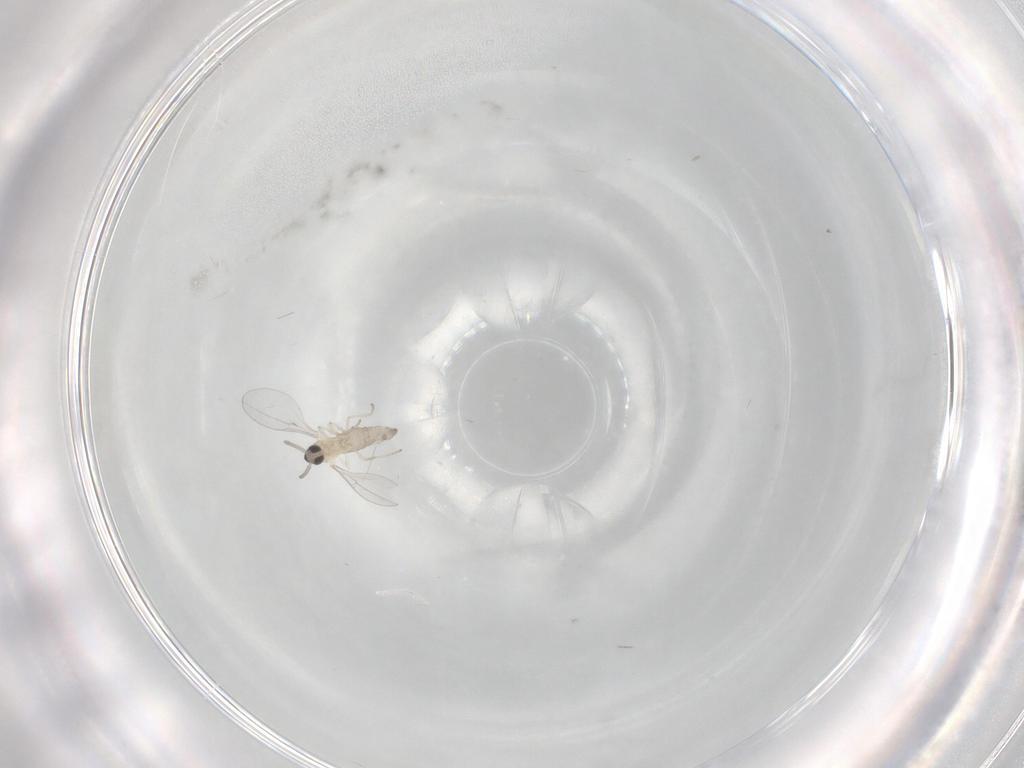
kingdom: Animalia
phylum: Arthropoda
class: Insecta
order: Diptera
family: Cecidomyiidae
